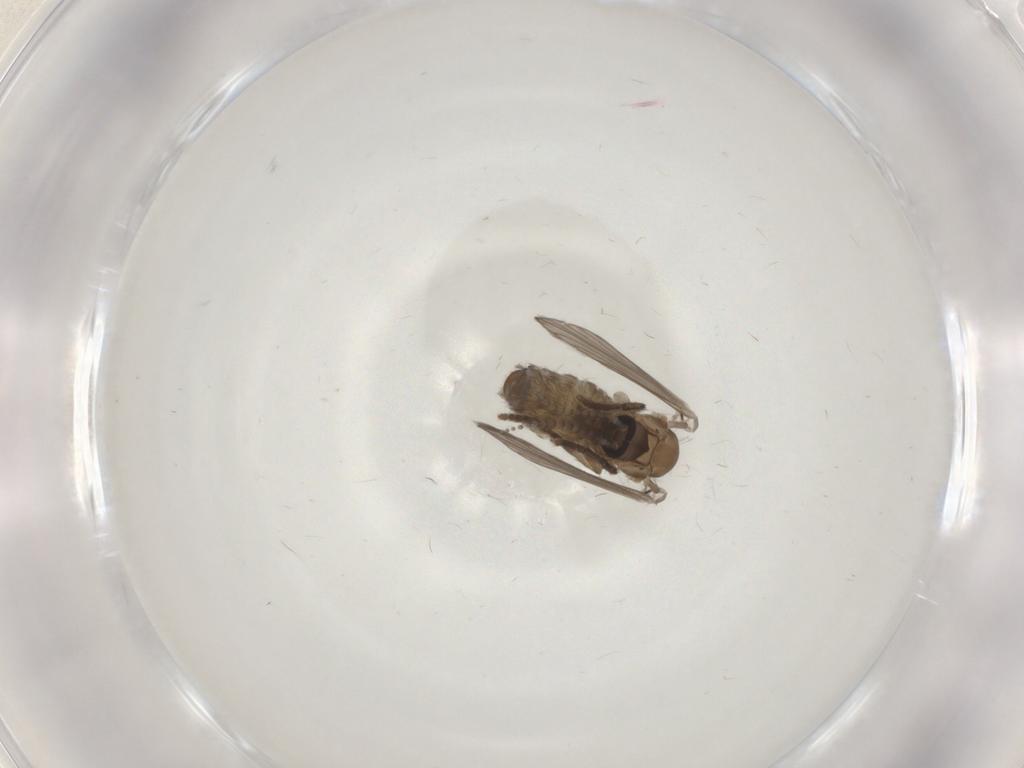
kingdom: Animalia
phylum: Arthropoda
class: Insecta
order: Diptera
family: Psychodidae
